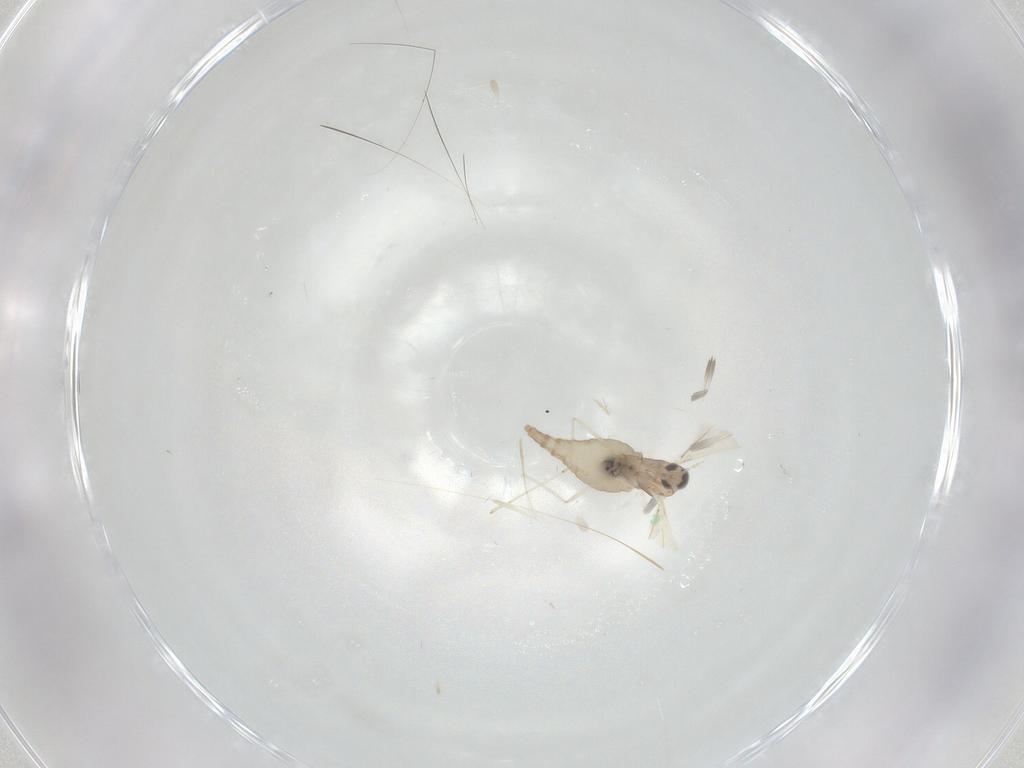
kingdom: Animalia
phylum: Arthropoda
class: Insecta
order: Diptera
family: Cecidomyiidae
